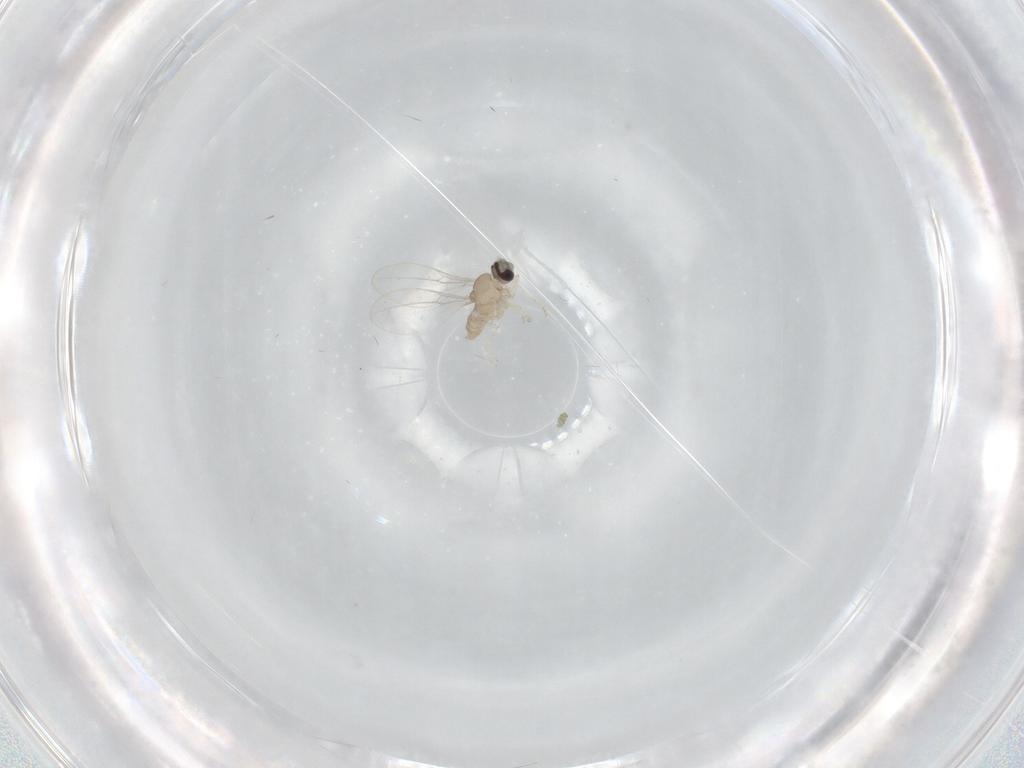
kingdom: Animalia
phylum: Arthropoda
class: Insecta
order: Diptera
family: Cecidomyiidae
